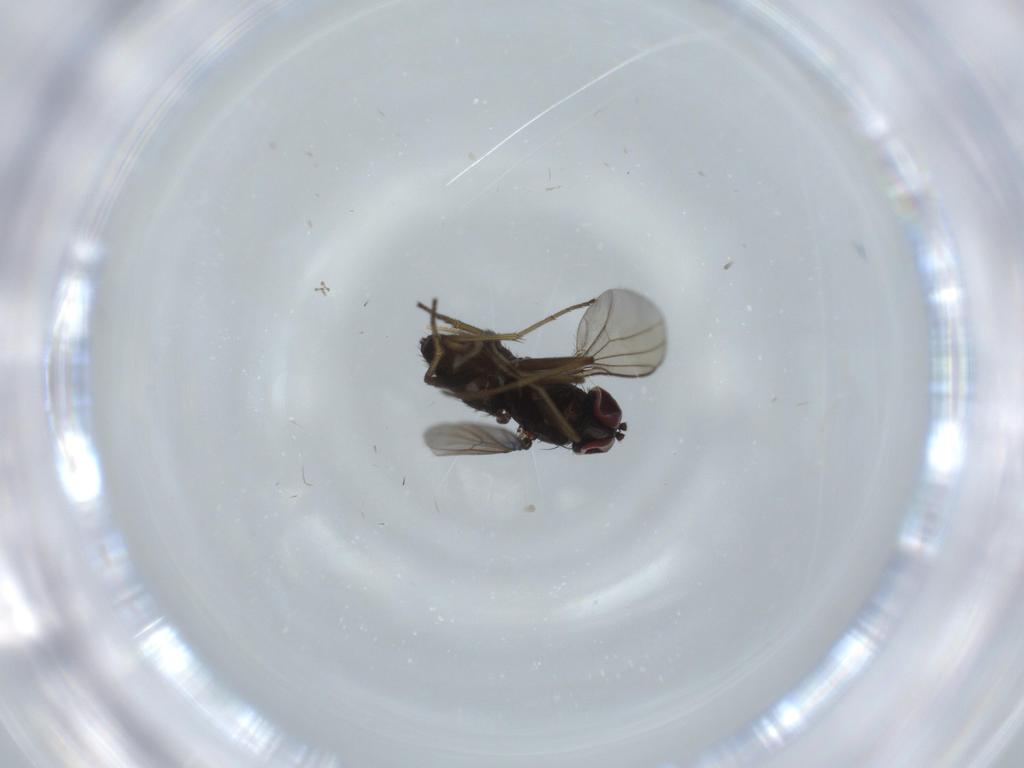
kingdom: Animalia
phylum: Arthropoda
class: Insecta
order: Diptera
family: Dolichopodidae
